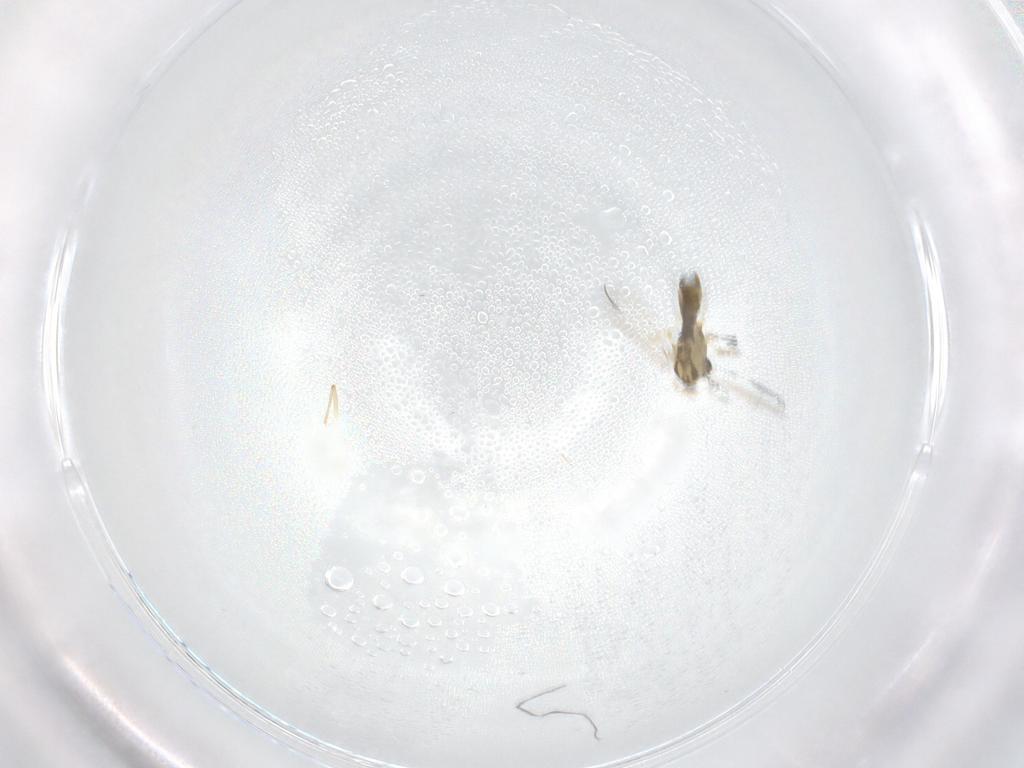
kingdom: Animalia
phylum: Arthropoda
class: Insecta
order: Diptera
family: Chironomidae
